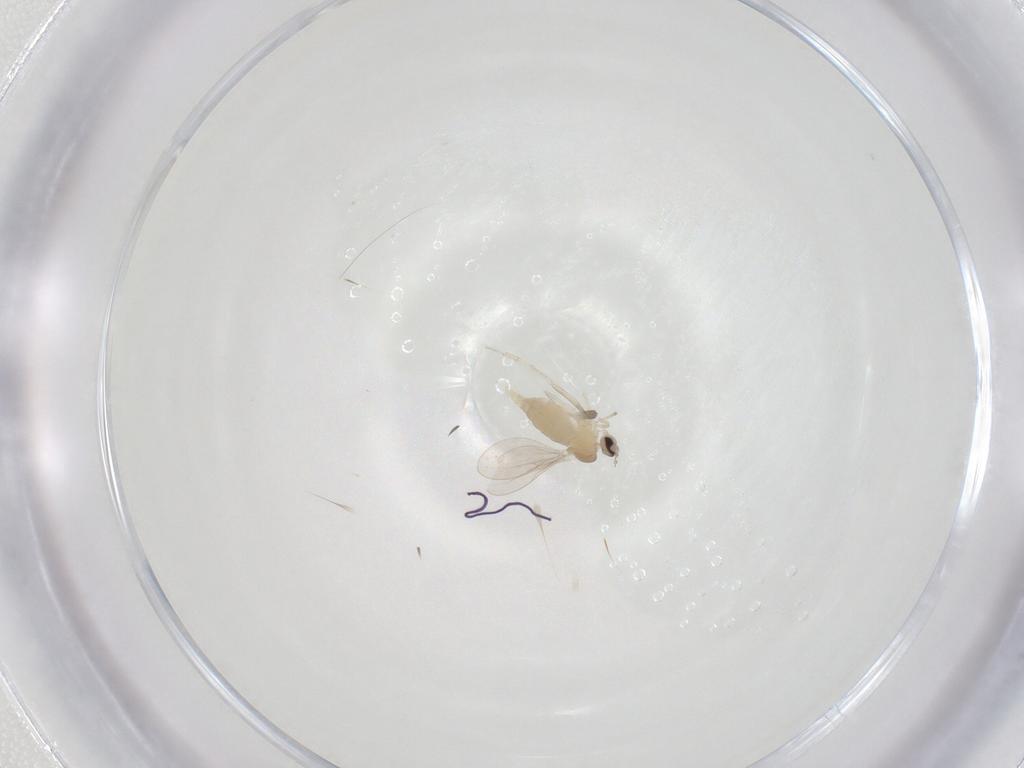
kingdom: Animalia
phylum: Arthropoda
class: Insecta
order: Diptera
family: Cecidomyiidae
